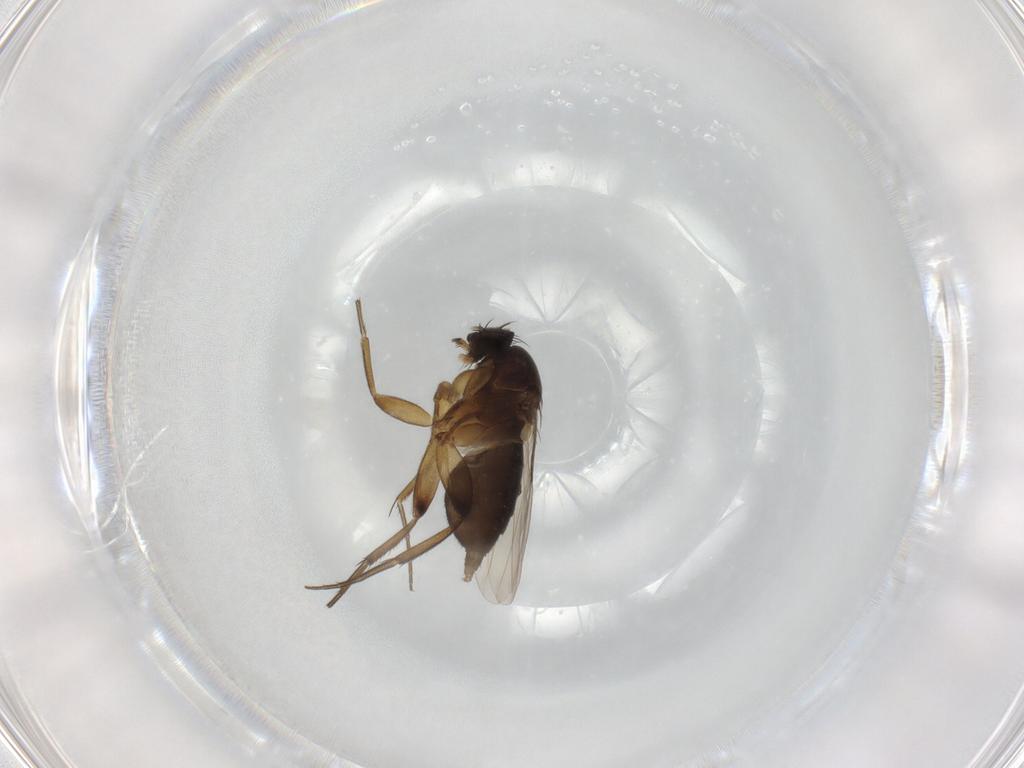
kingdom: Animalia
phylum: Arthropoda
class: Insecta
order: Diptera
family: Phoridae
